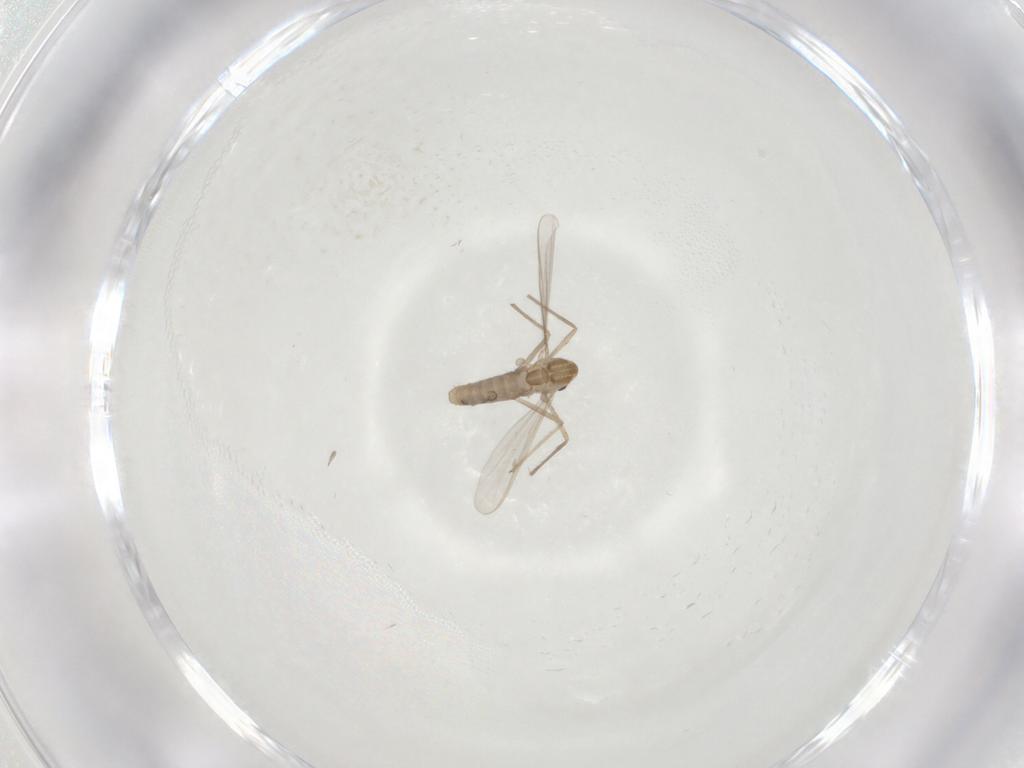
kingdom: Animalia
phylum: Arthropoda
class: Insecta
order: Diptera
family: Chironomidae
